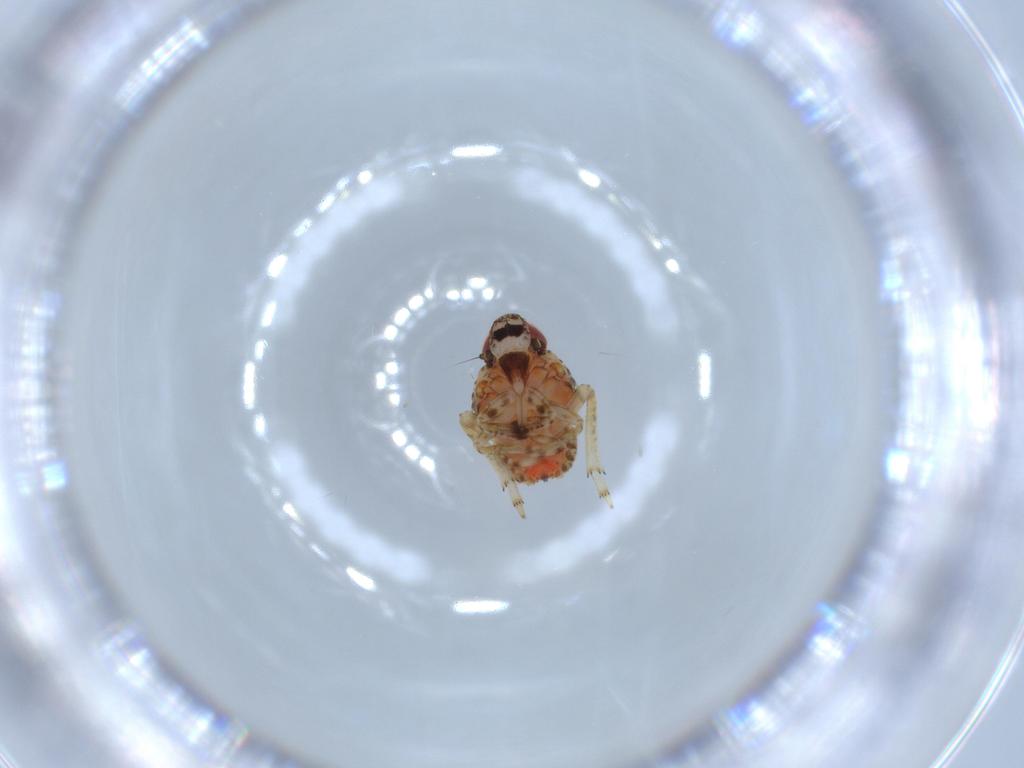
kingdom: Animalia
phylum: Arthropoda
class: Insecta
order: Hemiptera
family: Issidae
